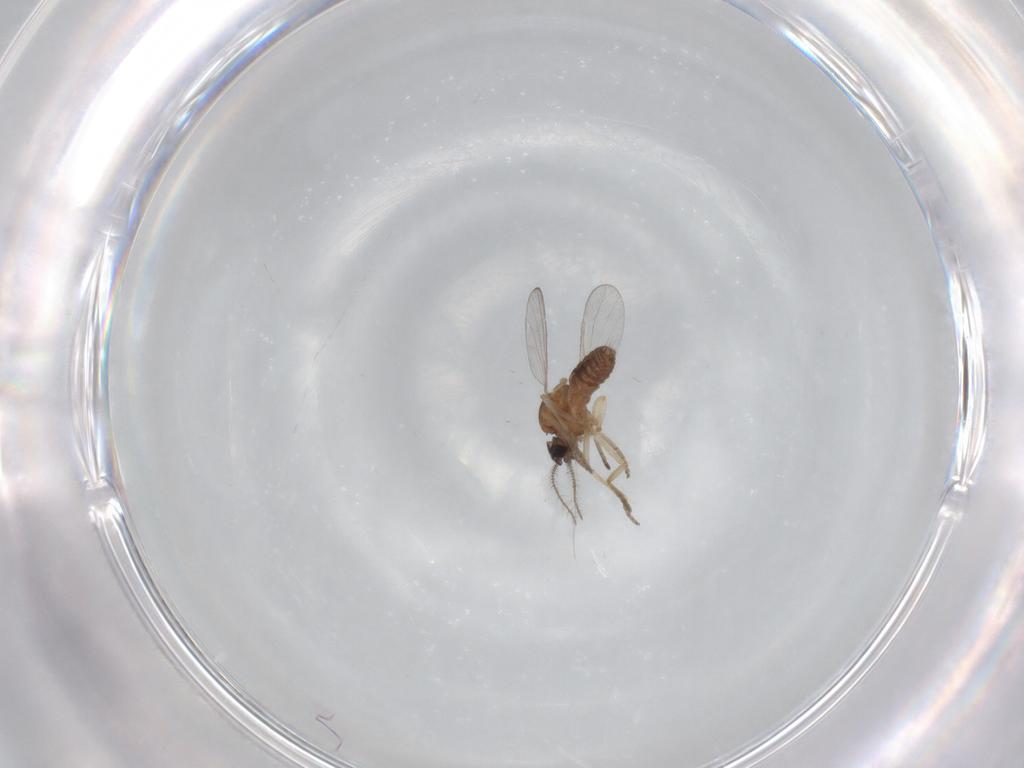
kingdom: Animalia
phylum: Arthropoda
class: Insecta
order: Diptera
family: Ceratopogonidae
